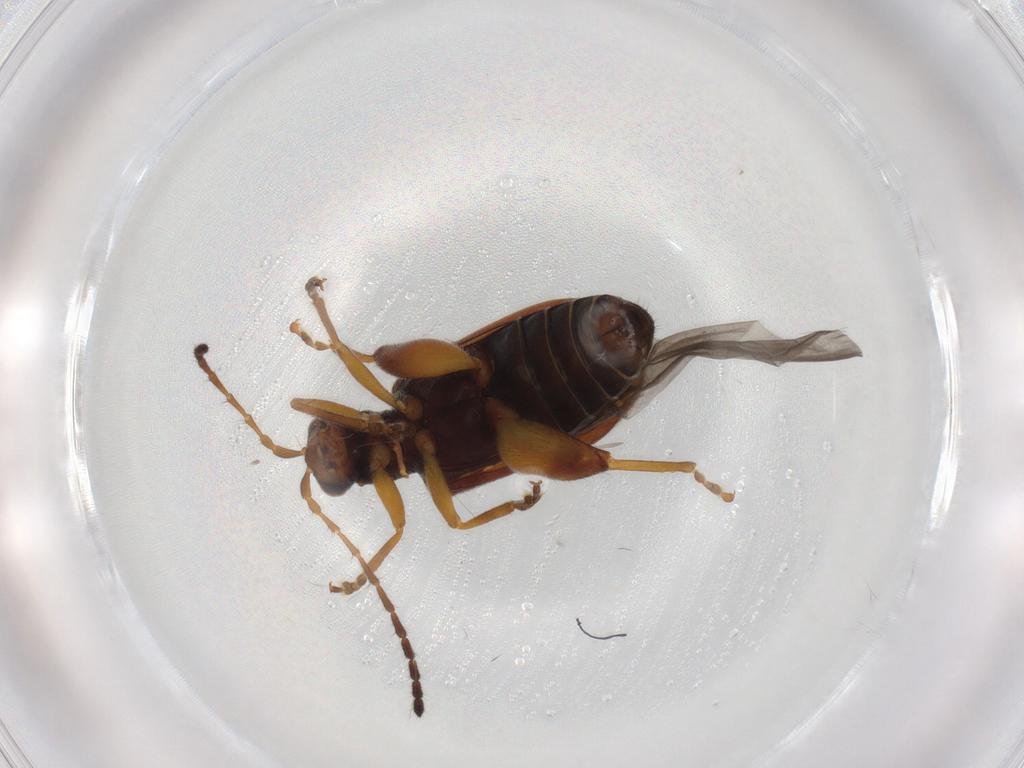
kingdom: Animalia
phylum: Arthropoda
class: Insecta
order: Coleoptera
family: Chrysomelidae
